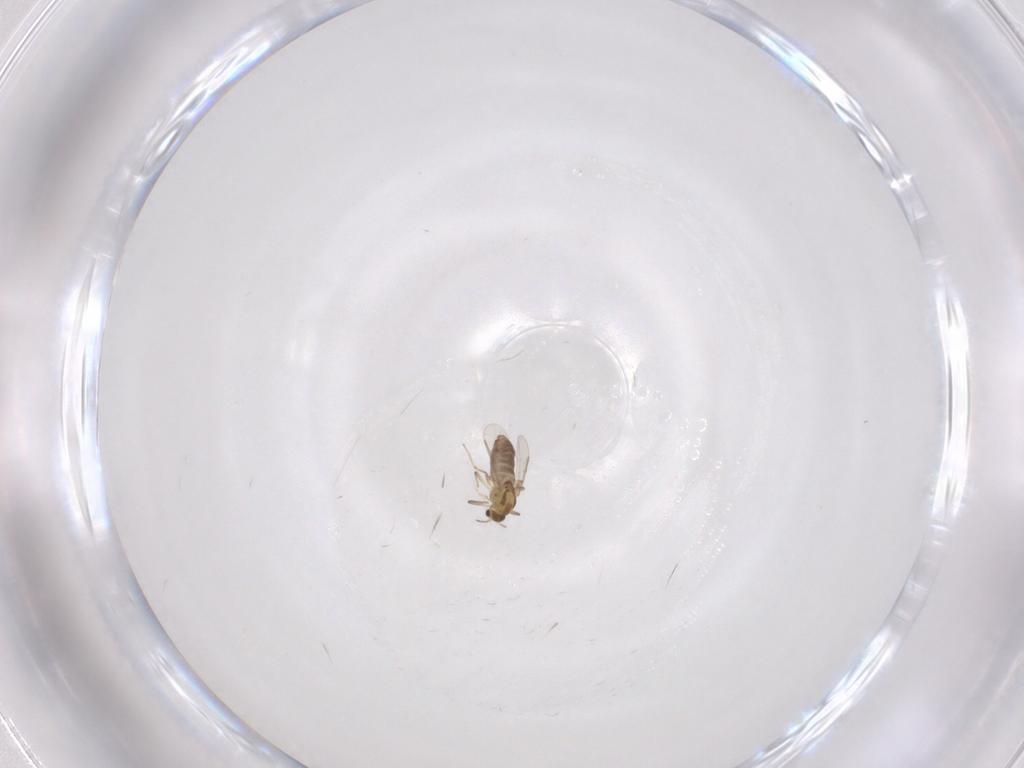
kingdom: Animalia
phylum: Arthropoda
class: Insecta
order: Diptera
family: Chironomidae
